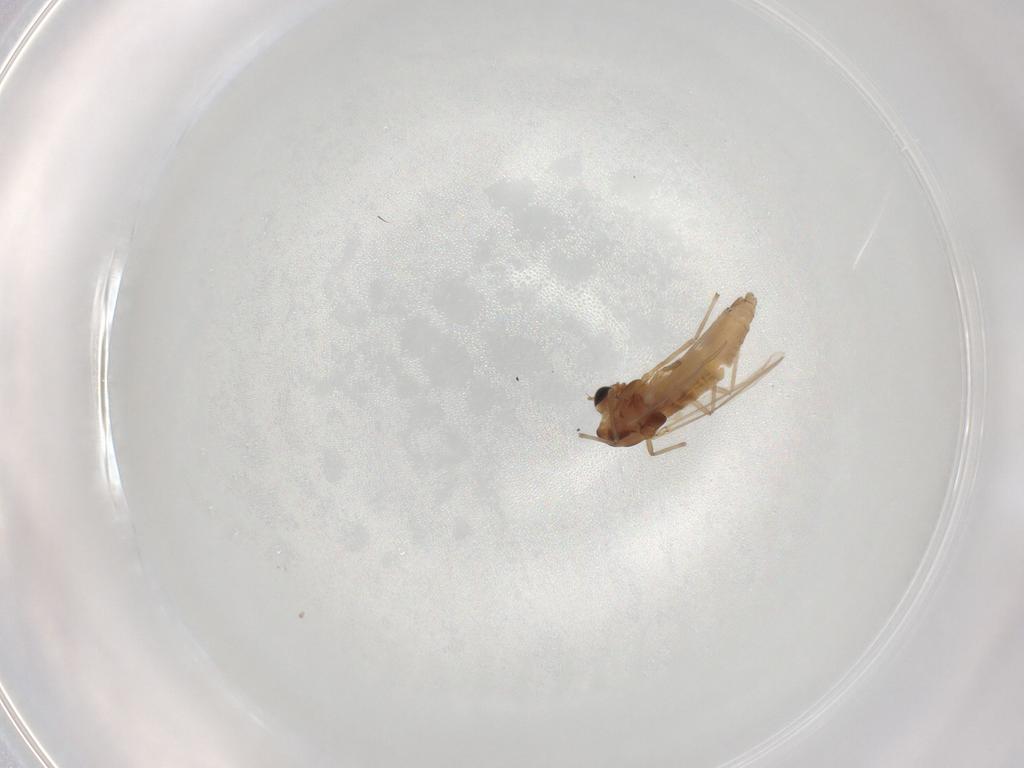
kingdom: Animalia
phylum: Arthropoda
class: Insecta
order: Diptera
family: Chironomidae
